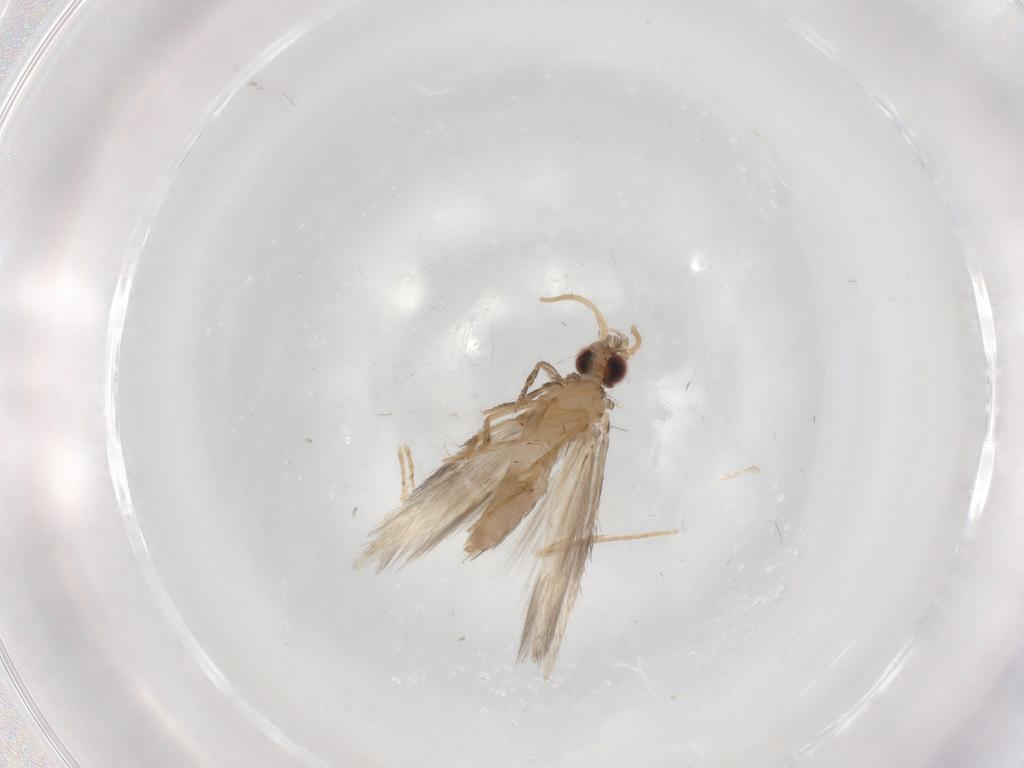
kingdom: Animalia
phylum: Arthropoda
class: Insecta
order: Trichoptera
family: Hydroptilidae
